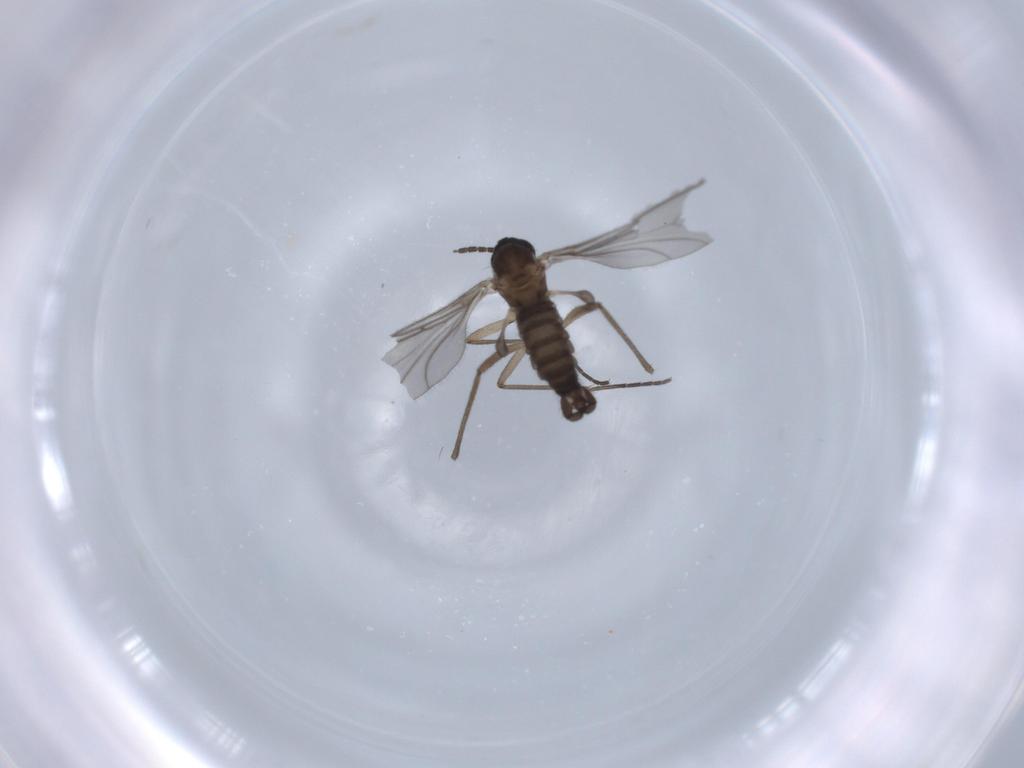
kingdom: Animalia
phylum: Arthropoda
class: Insecta
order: Diptera
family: Sciaridae
